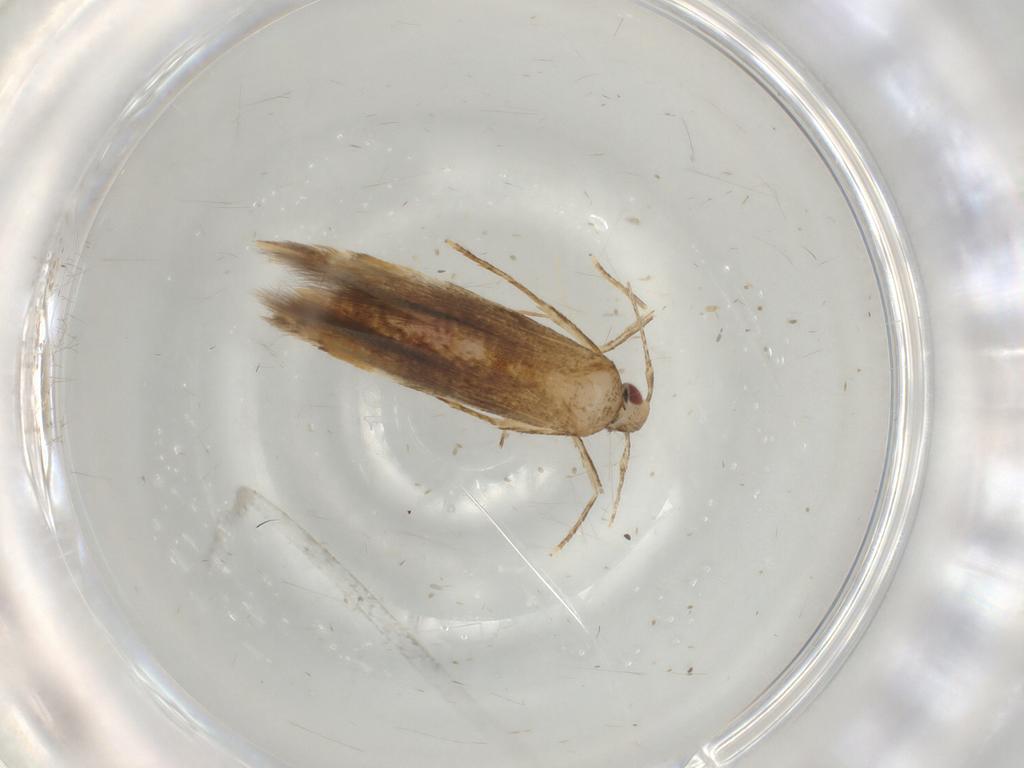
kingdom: Animalia
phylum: Arthropoda
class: Insecta
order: Lepidoptera
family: Gelechiidae
